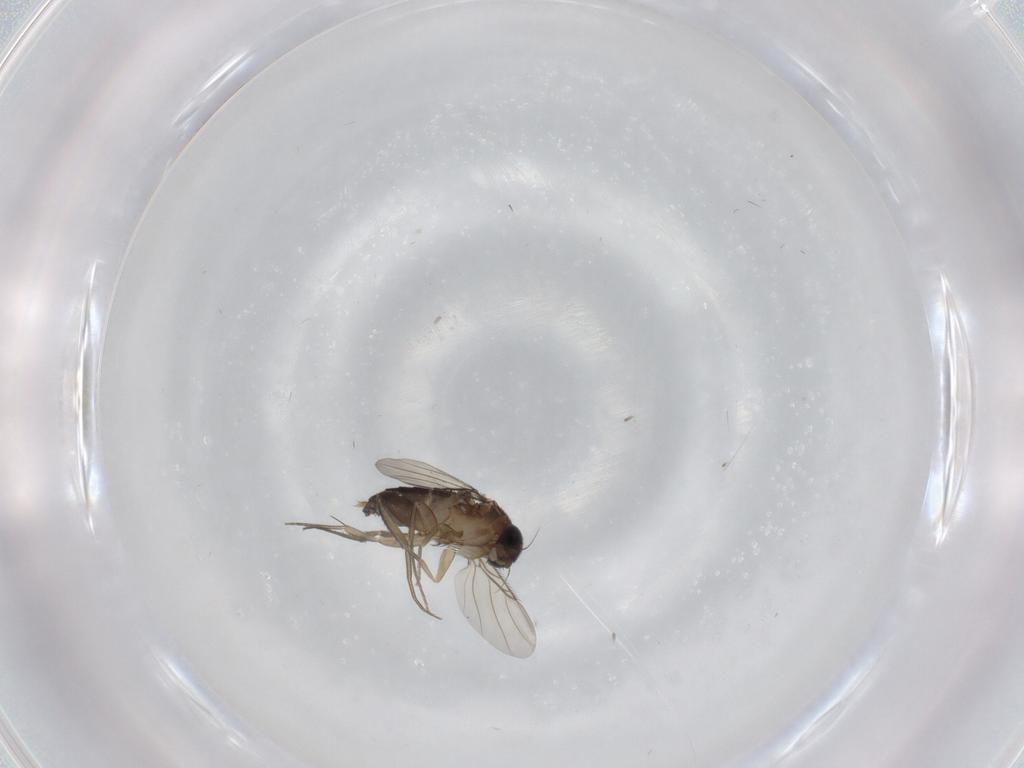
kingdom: Animalia
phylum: Arthropoda
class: Insecta
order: Diptera
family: Phoridae
